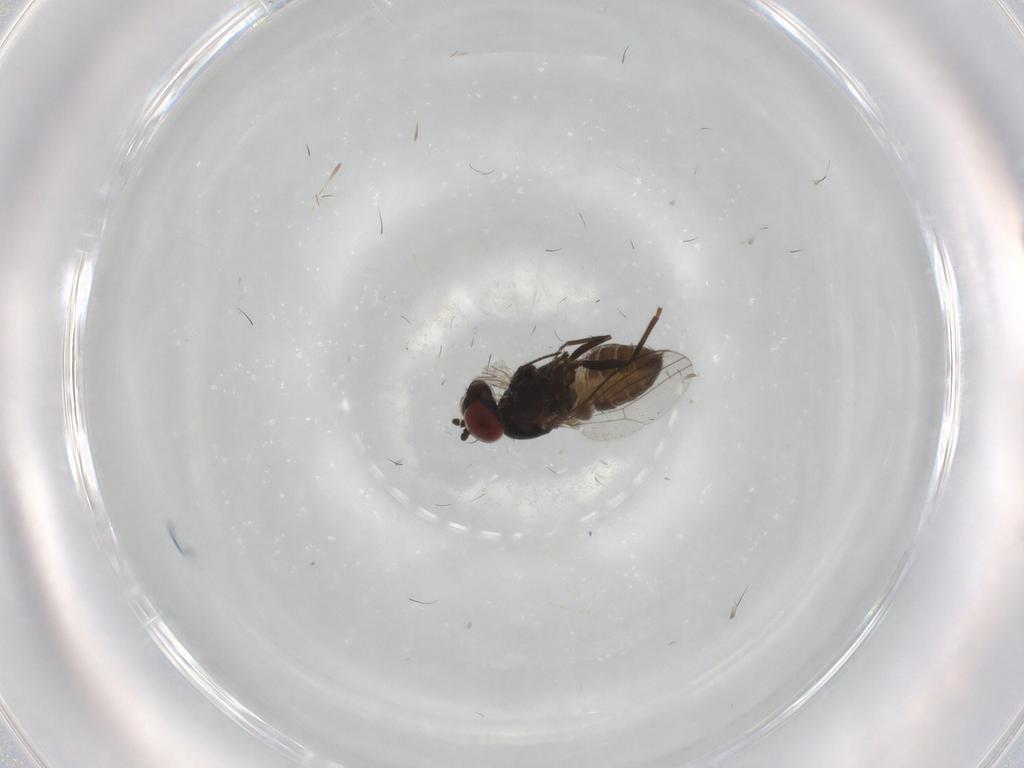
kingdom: Animalia
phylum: Arthropoda
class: Insecta
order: Diptera
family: Dolichopodidae
